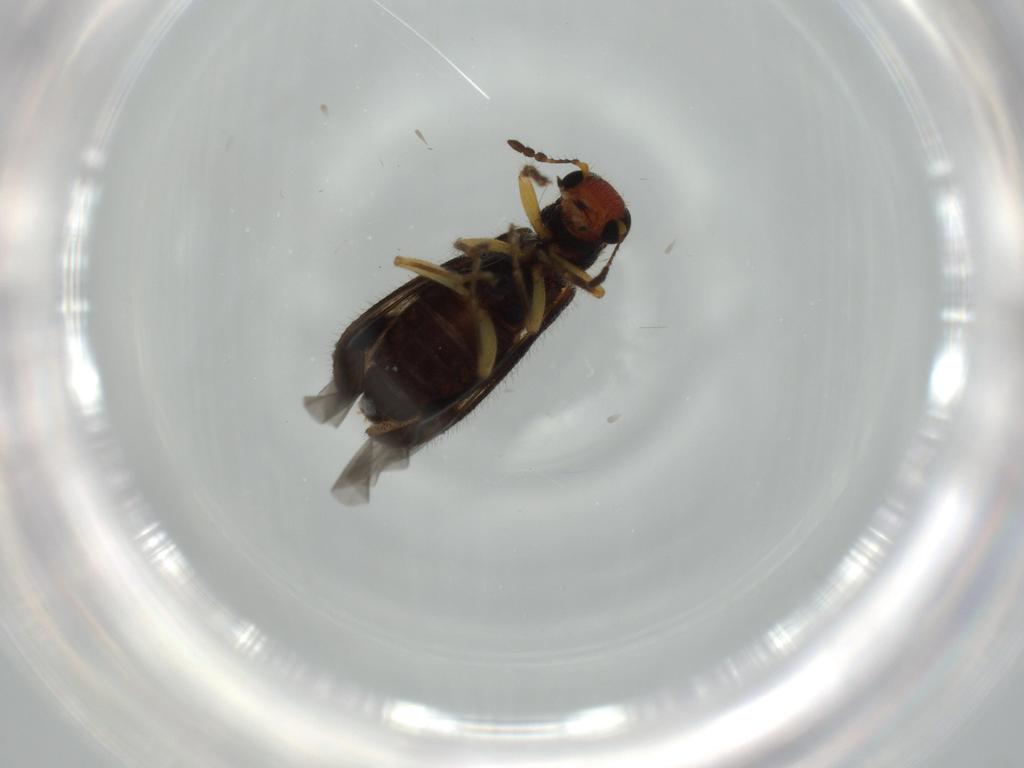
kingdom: Animalia
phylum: Arthropoda
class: Insecta
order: Coleoptera
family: Cleridae
